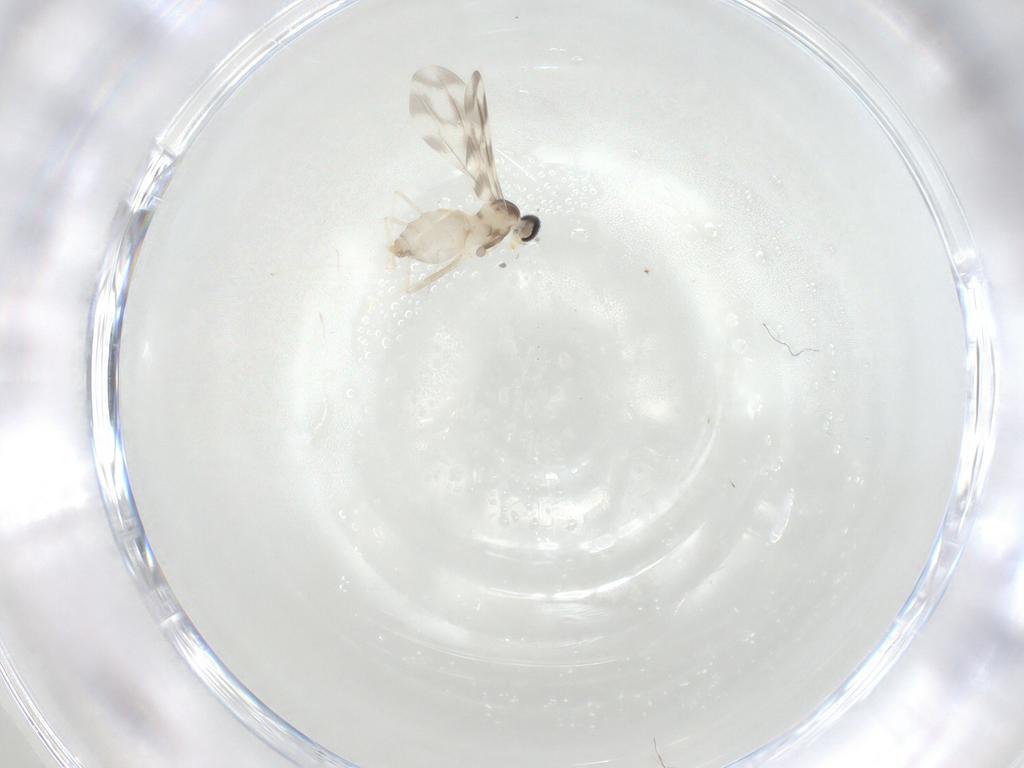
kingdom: Animalia
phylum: Arthropoda
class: Insecta
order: Diptera
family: Cecidomyiidae
